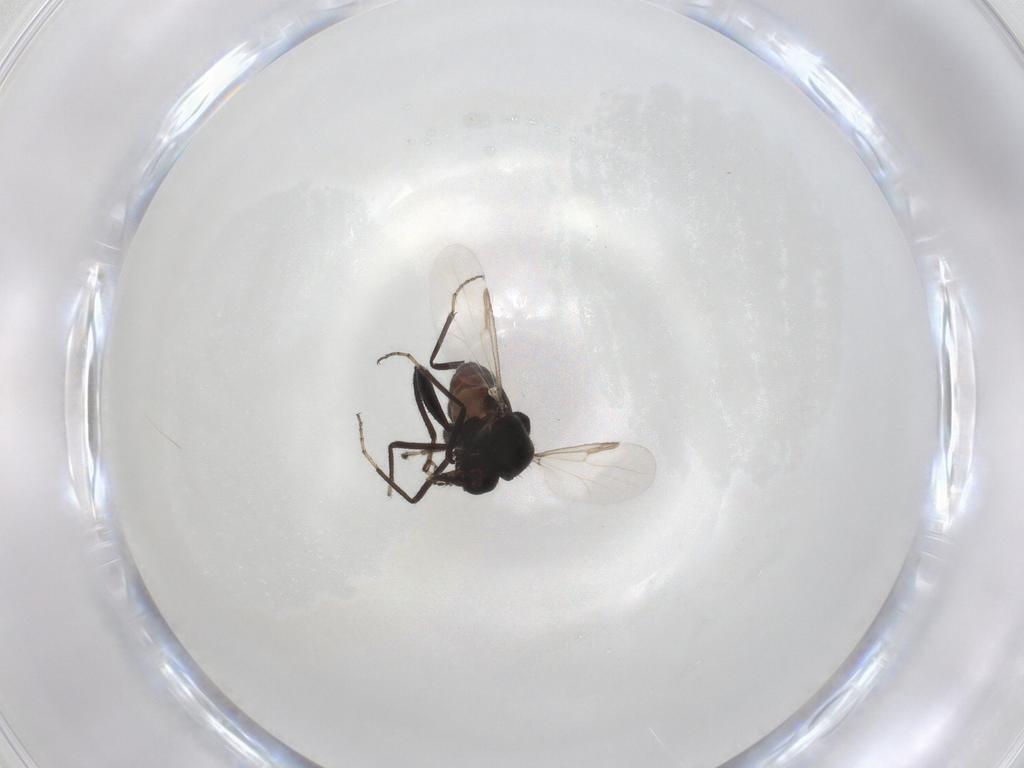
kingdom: Animalia
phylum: Arthropoda
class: Insecta
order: Diptera
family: Ceratopogonidae
